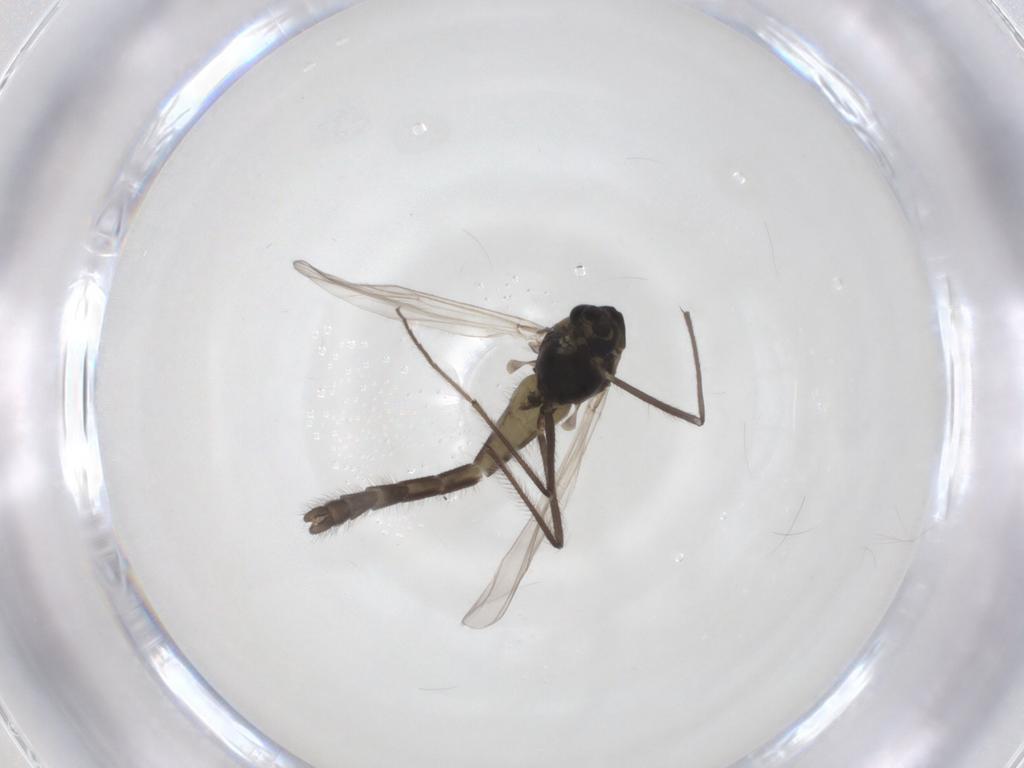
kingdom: Animalia
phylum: Arthropoda
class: Insecta
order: Diptera
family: Chironomidae
